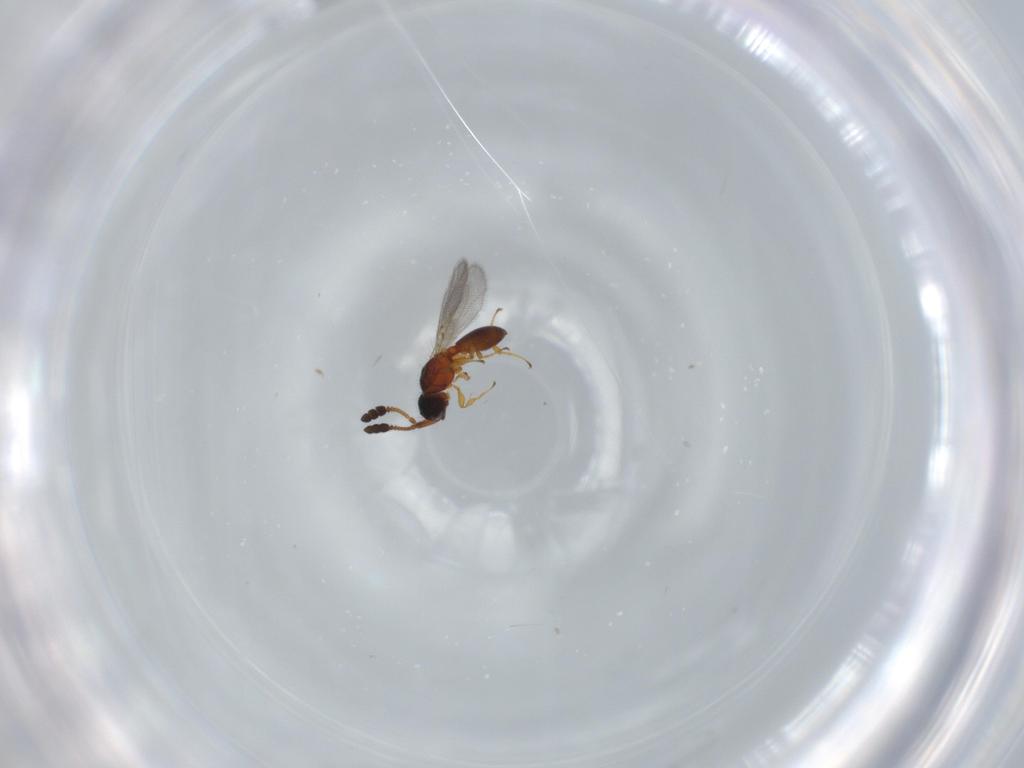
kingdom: Animalia
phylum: Arthropoda
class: Insecta
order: Hymenoptera
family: Diapriidae
